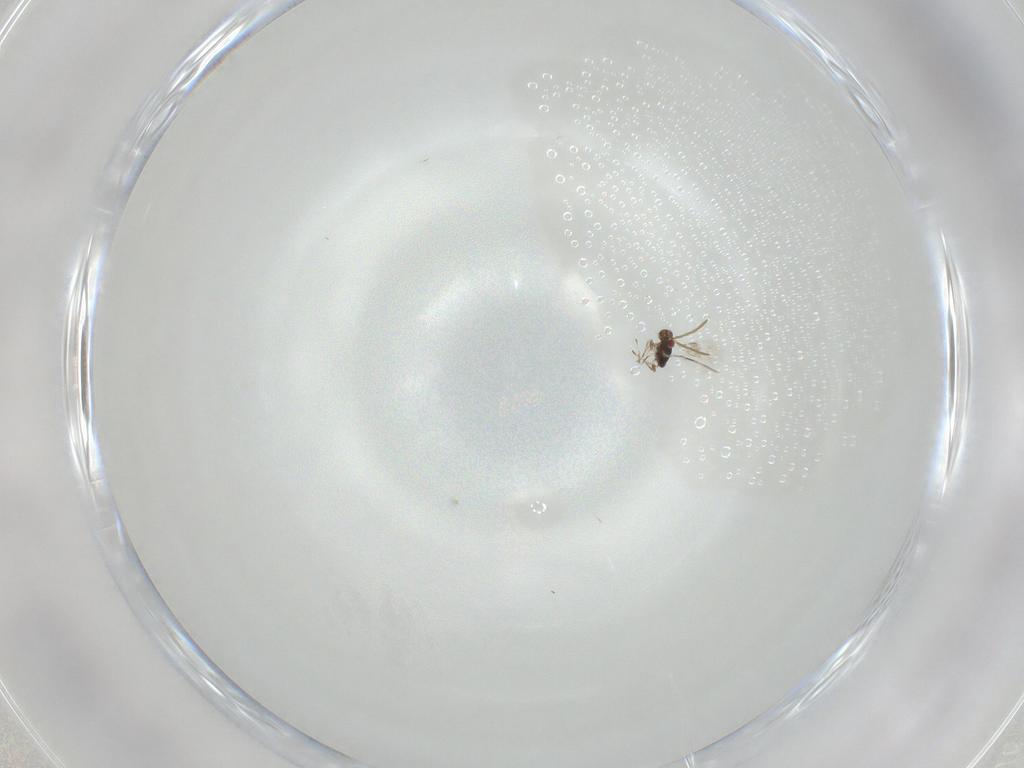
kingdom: Animalia
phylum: Arthropoda
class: Insecta
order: Hymenoptera
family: Azotidae
